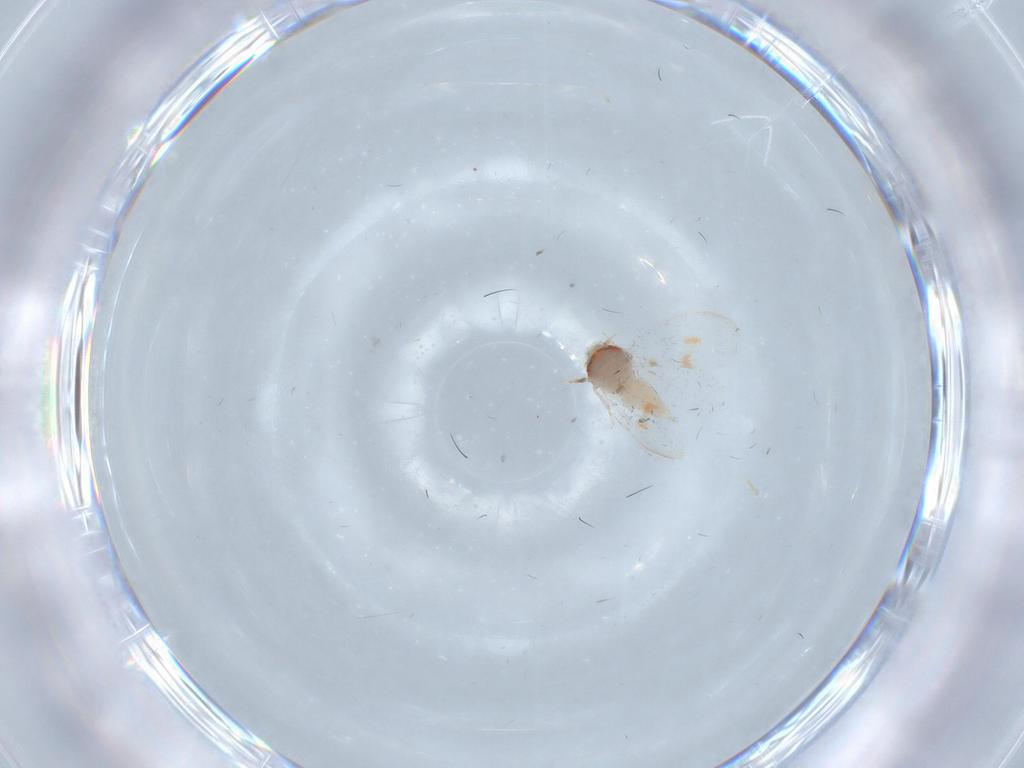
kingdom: Animalia
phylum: Arthropoda
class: Insecta
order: Hemiptera
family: Aleyrodidae
